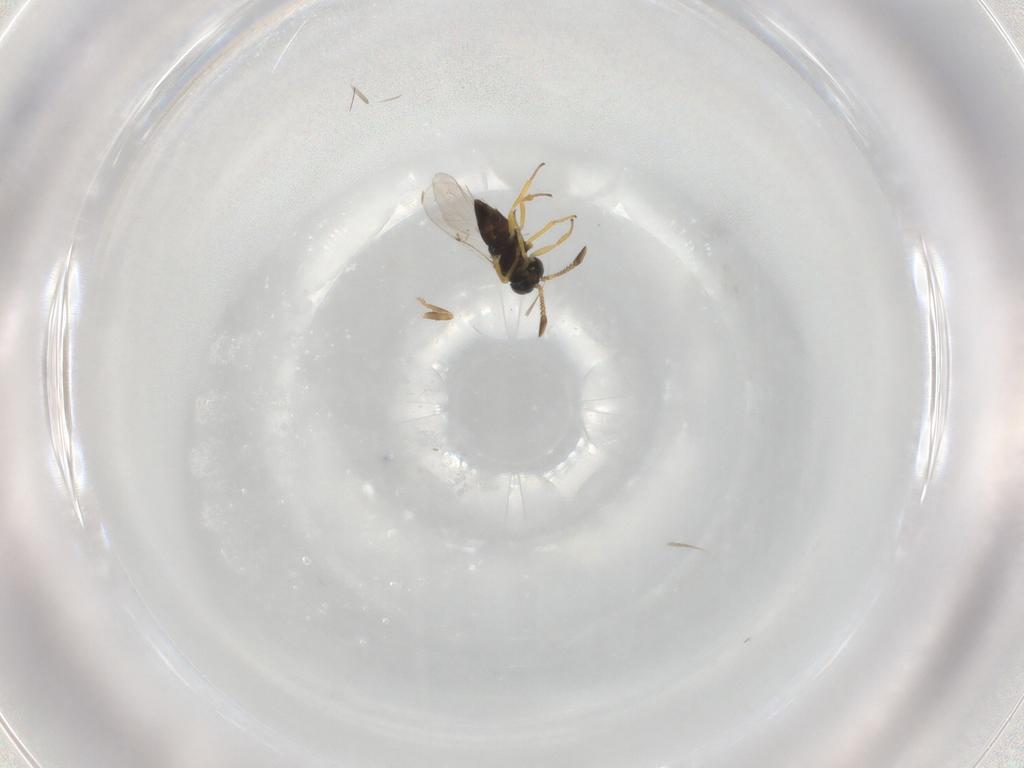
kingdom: Animalia
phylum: Arthropoda
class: Insecta
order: Hymenoptera
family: Encyrtidae
